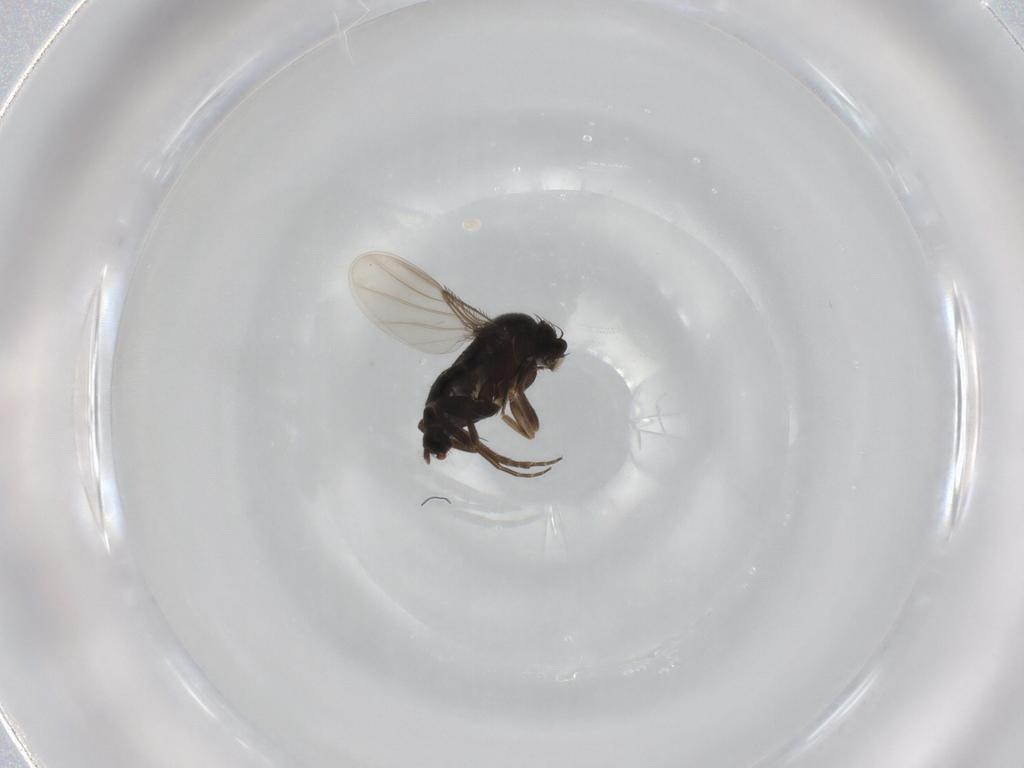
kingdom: Animalia
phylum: Arthropoda
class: Insecta
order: Diptera
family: Phoridae
